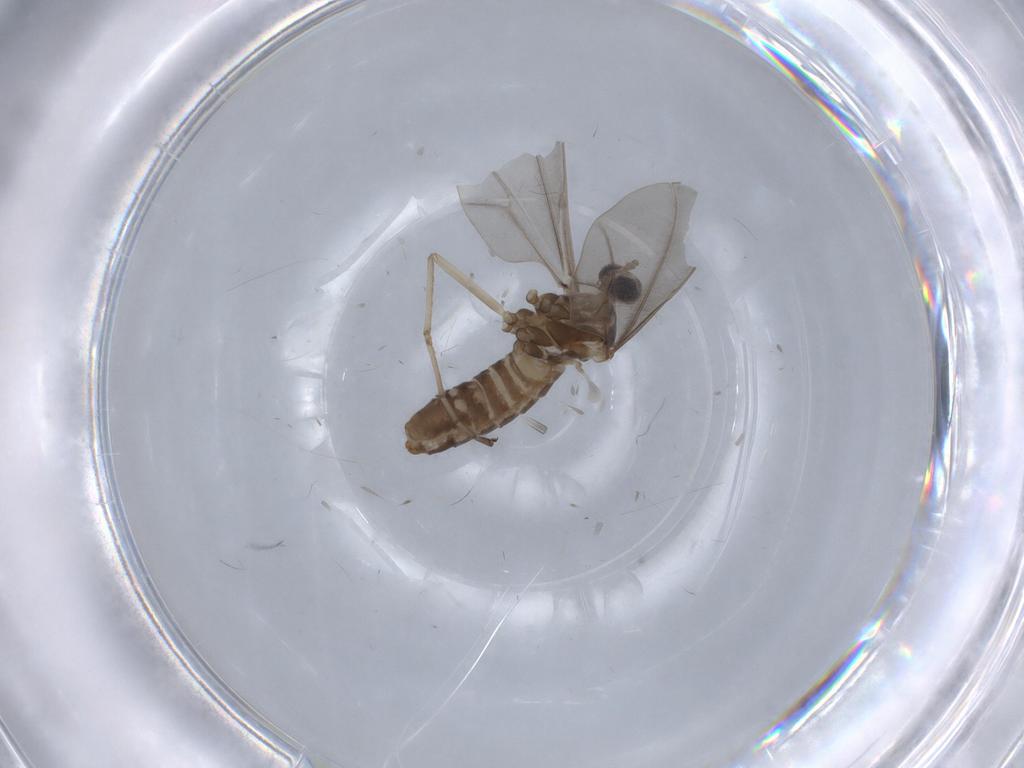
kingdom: Animalia
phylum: Arthropoda
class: Insecta
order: Diptera
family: Cecidomyiidae
